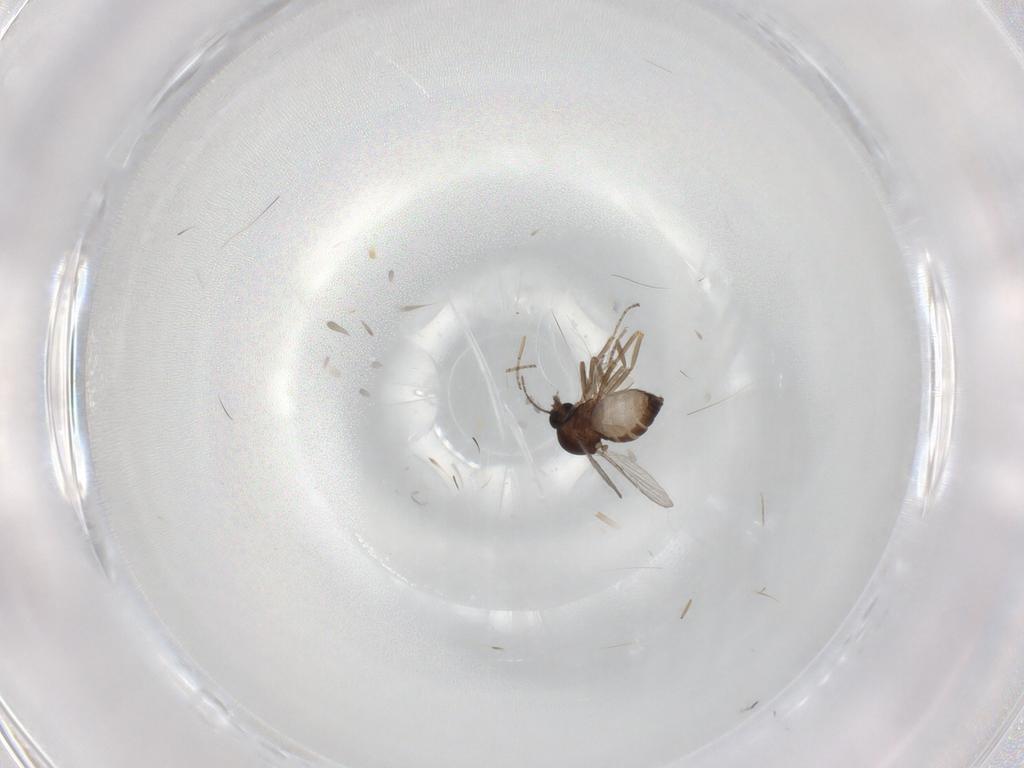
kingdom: Animalia
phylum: Arthropoda
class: Insecta
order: Diptera
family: Ceratopogonidae
